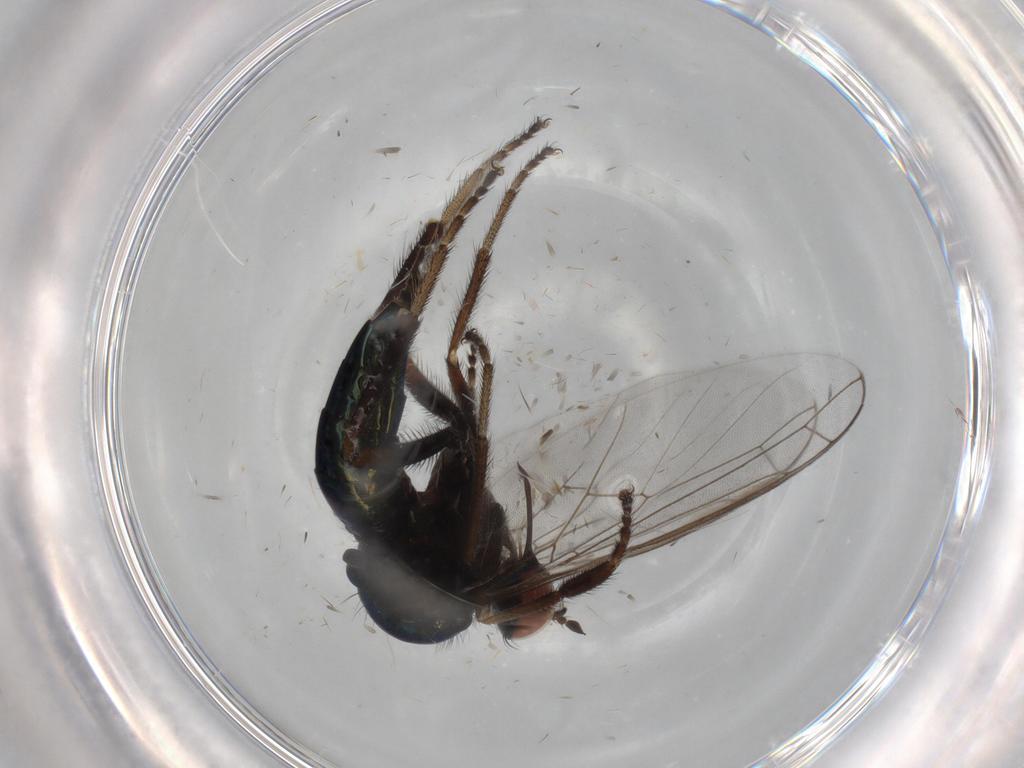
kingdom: Animalia
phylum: Arthropoda
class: Insecta
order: Diptera
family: Empididae
